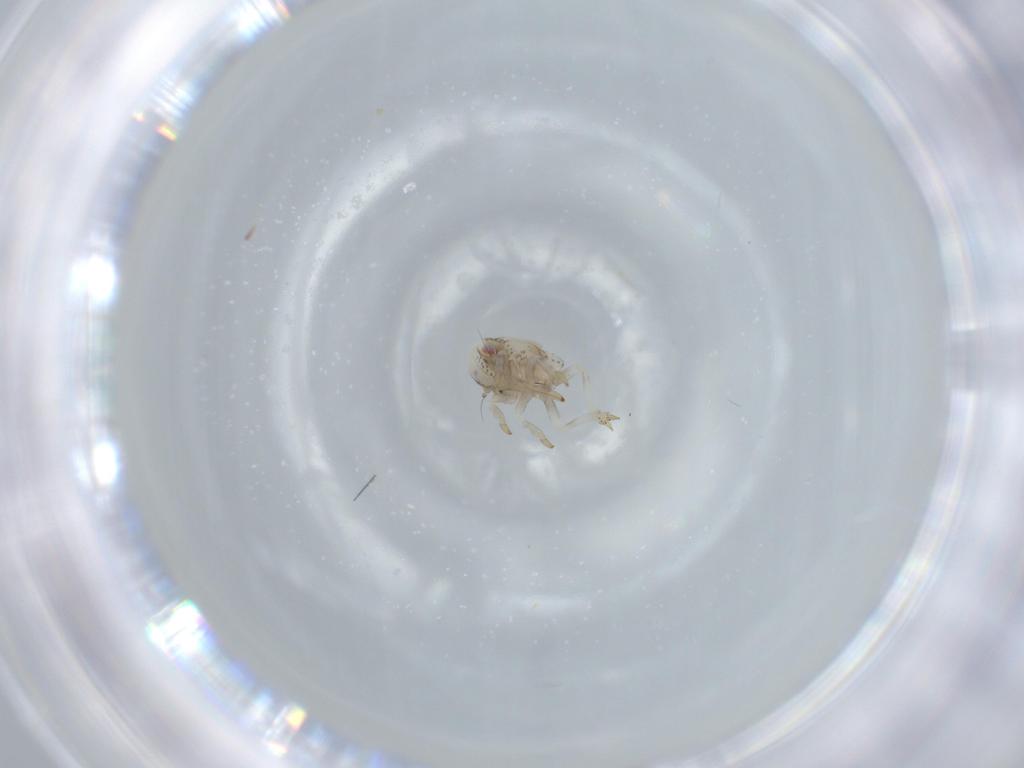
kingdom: Animalia
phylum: Arthropoda
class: Insecta
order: Hemiptera
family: Acanaloniidae
